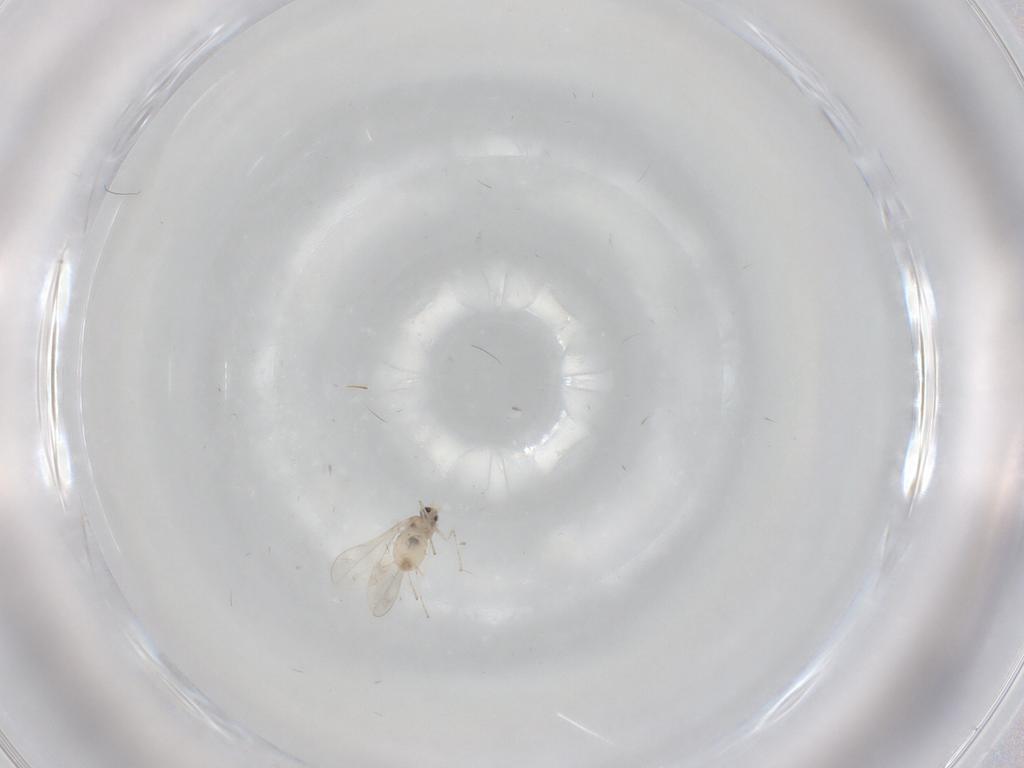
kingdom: Animalia
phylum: Arthropoda
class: Insecta
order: Diptera
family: Cecidomyiidae
